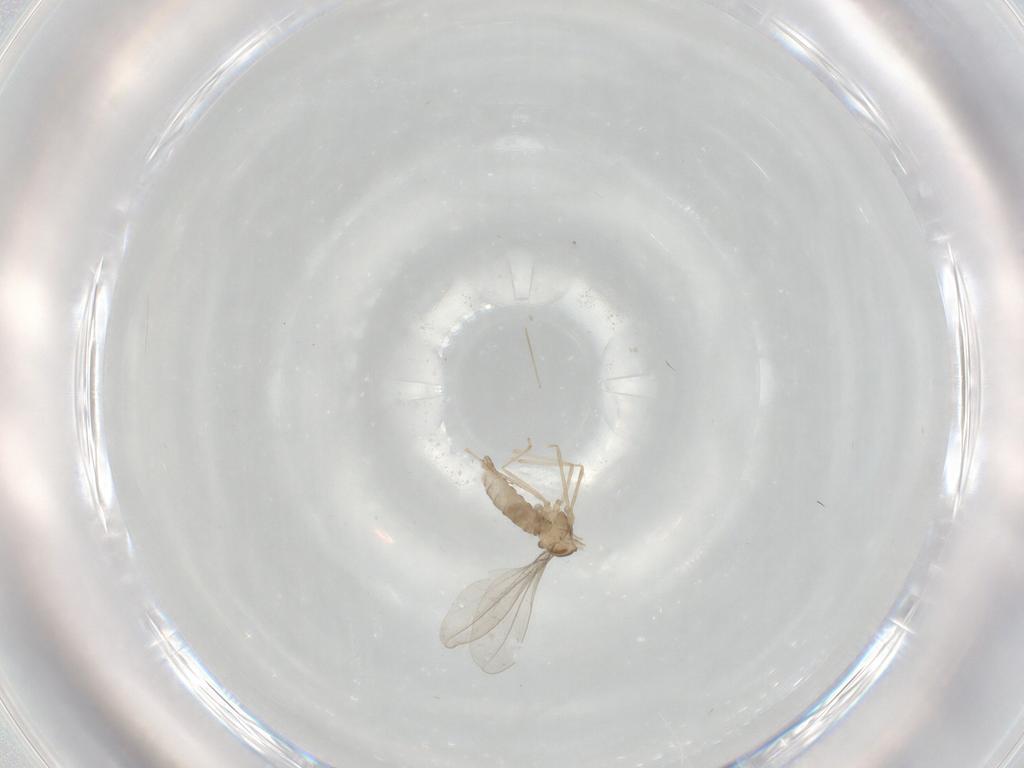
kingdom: Animalia
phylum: Arthropoda
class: Insecta
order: Diptera
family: Cecidomyiidae
